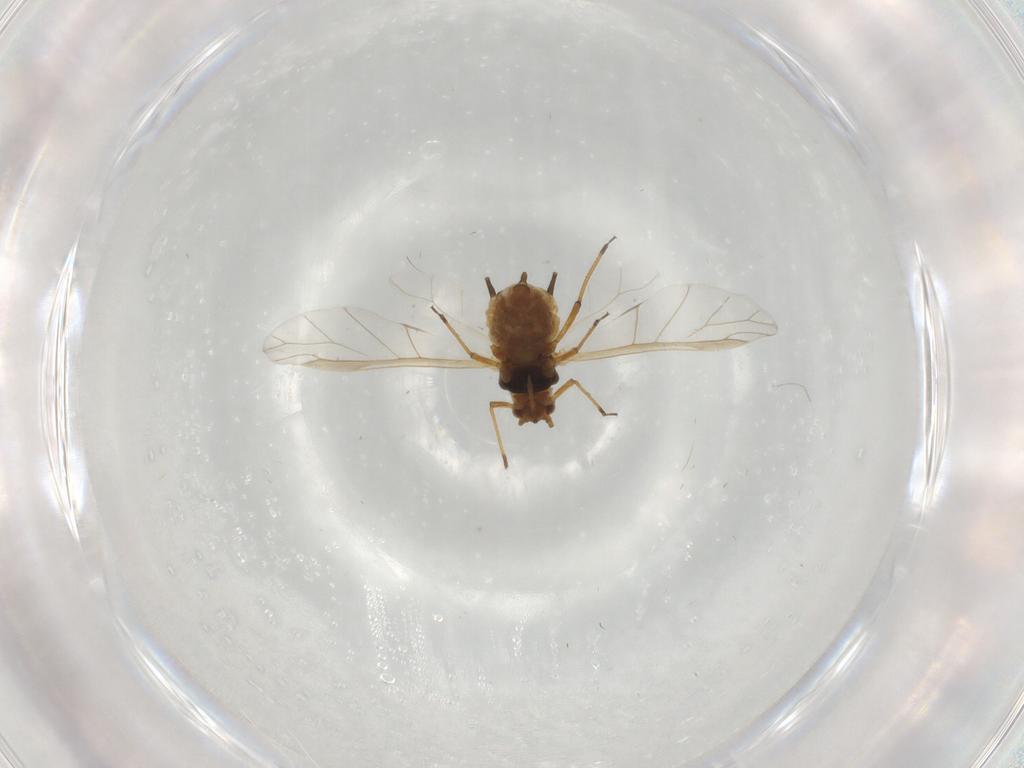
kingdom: Animalia
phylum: Arthropoda
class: Insecta
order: Hemiptera
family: Aphididae
